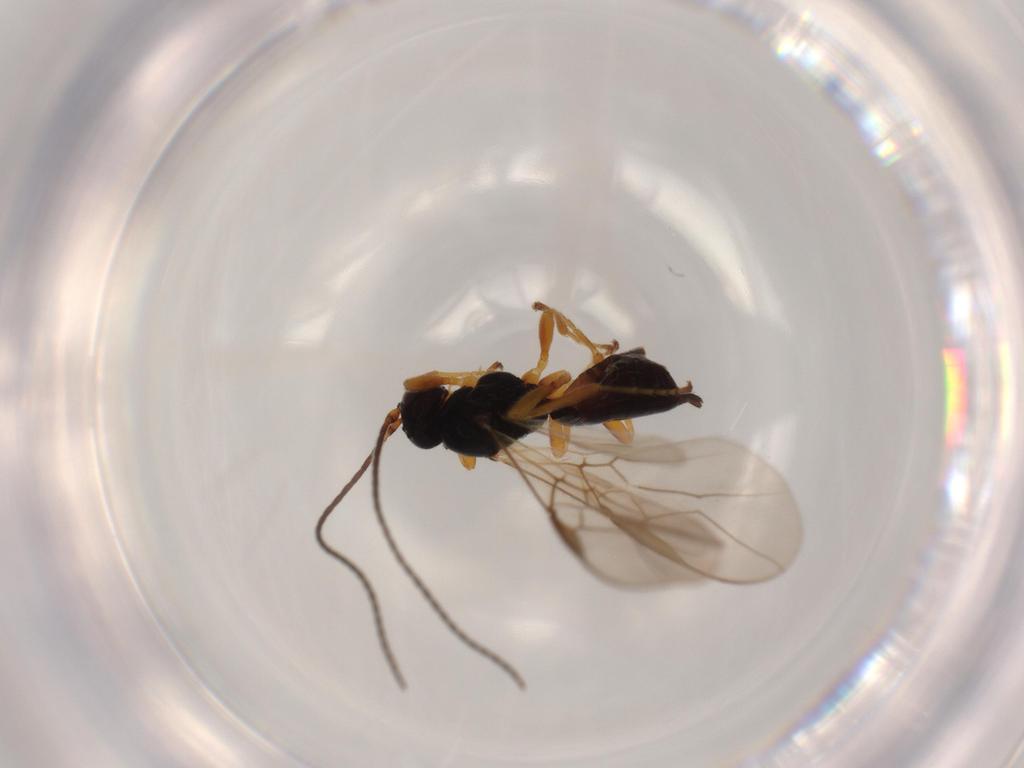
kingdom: Animalia
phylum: Arthropoda
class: Insecta
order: Hymenoptera
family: Braconidae
